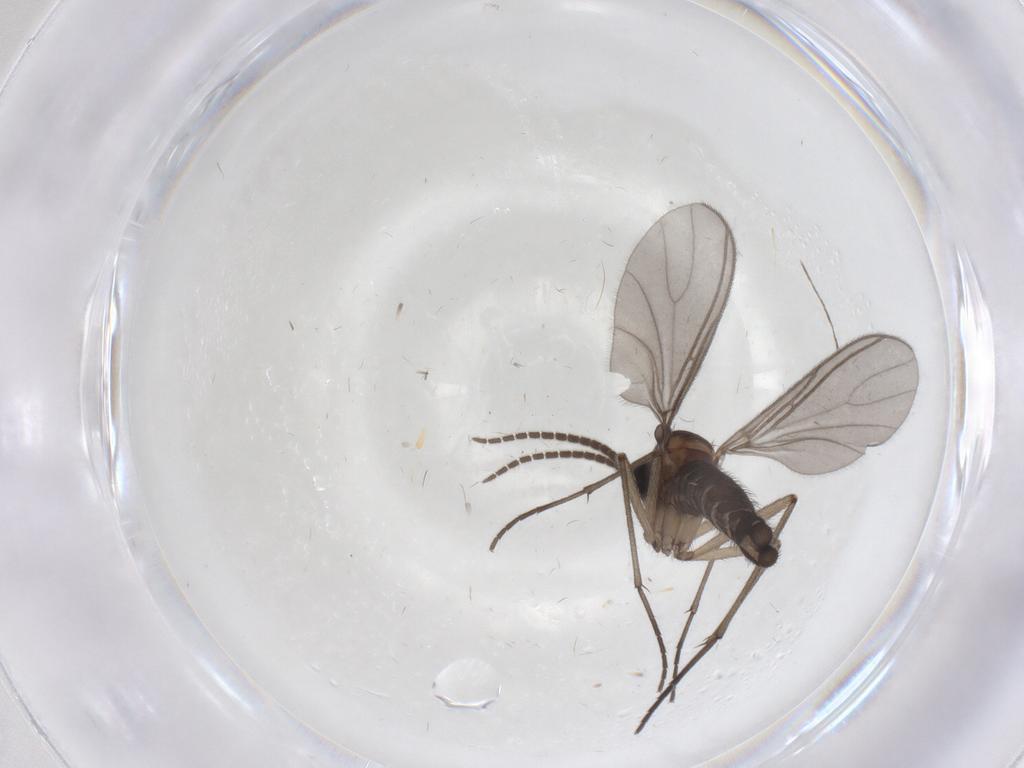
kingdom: Animalia
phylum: Arthropoda
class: Insecta
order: Diptera
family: Sciaridae
